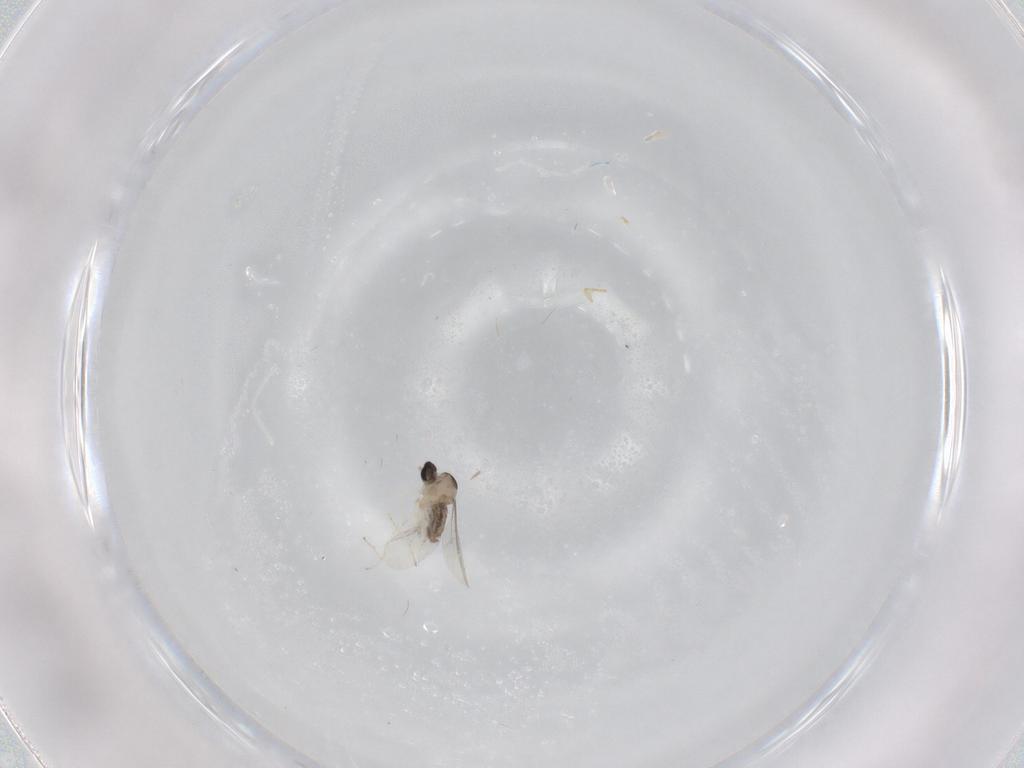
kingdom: Animalia
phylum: Arthropoda
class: Insecta
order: Diptera
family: Cecidomyiidae
